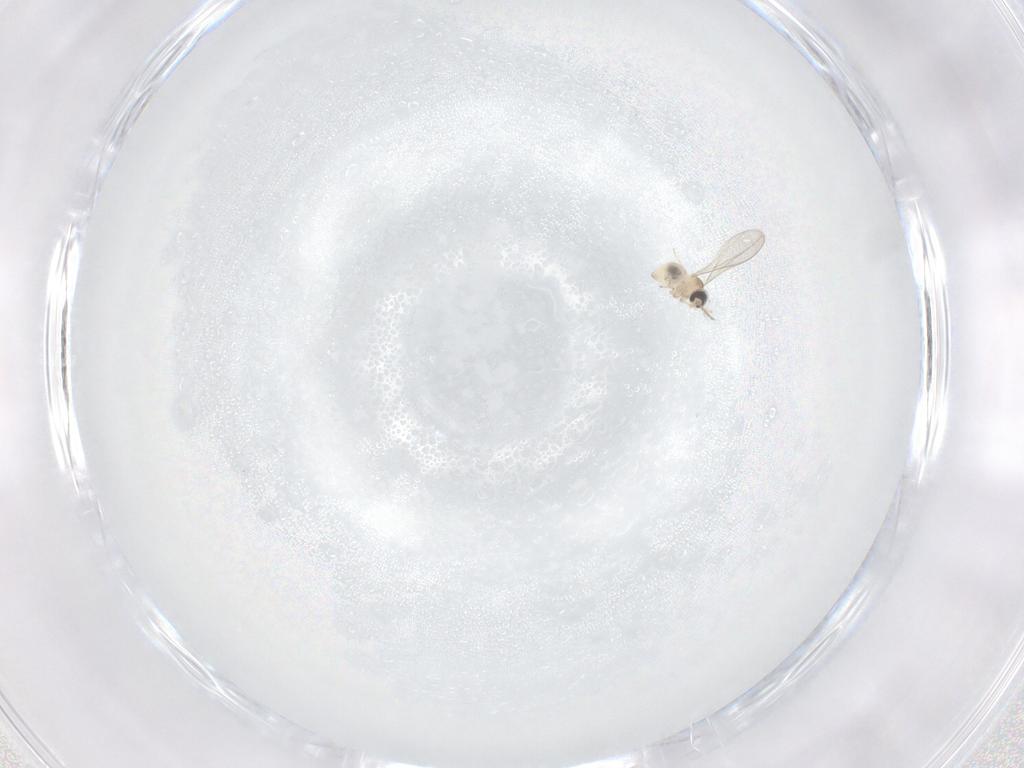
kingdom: Animalia
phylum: Arthropoda
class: Insecta
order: Diptera
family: Cecidomyiidae
